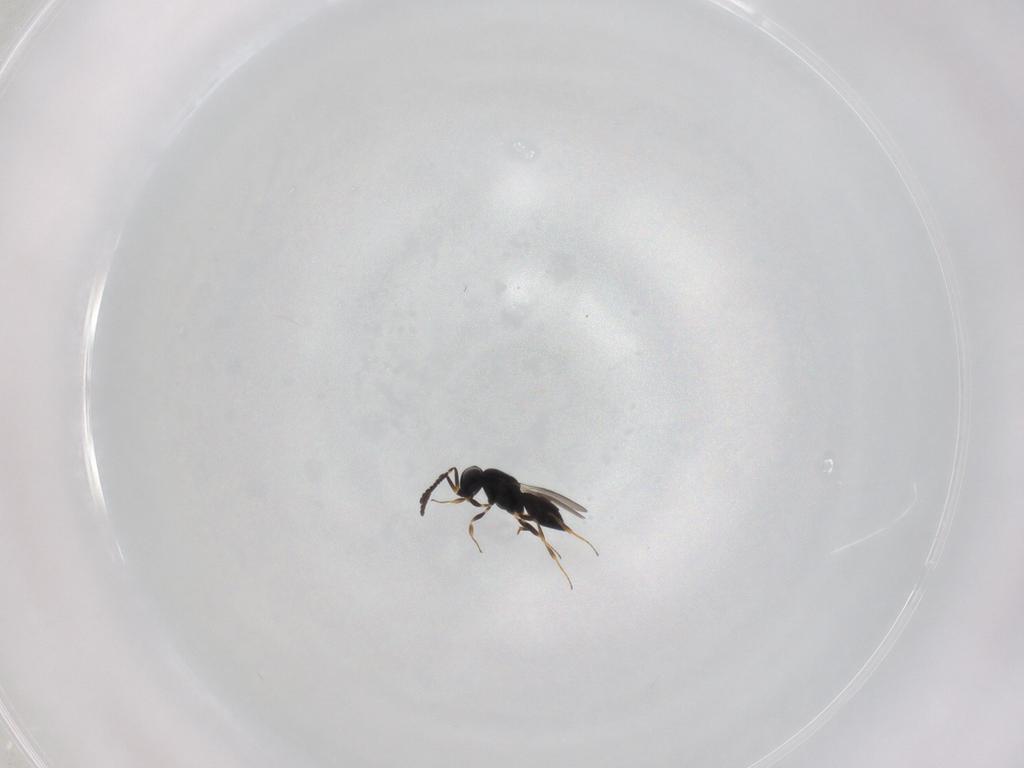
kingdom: Animalia
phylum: Arthropoda
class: Insecta
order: Hymenoptera
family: Scelionidae
